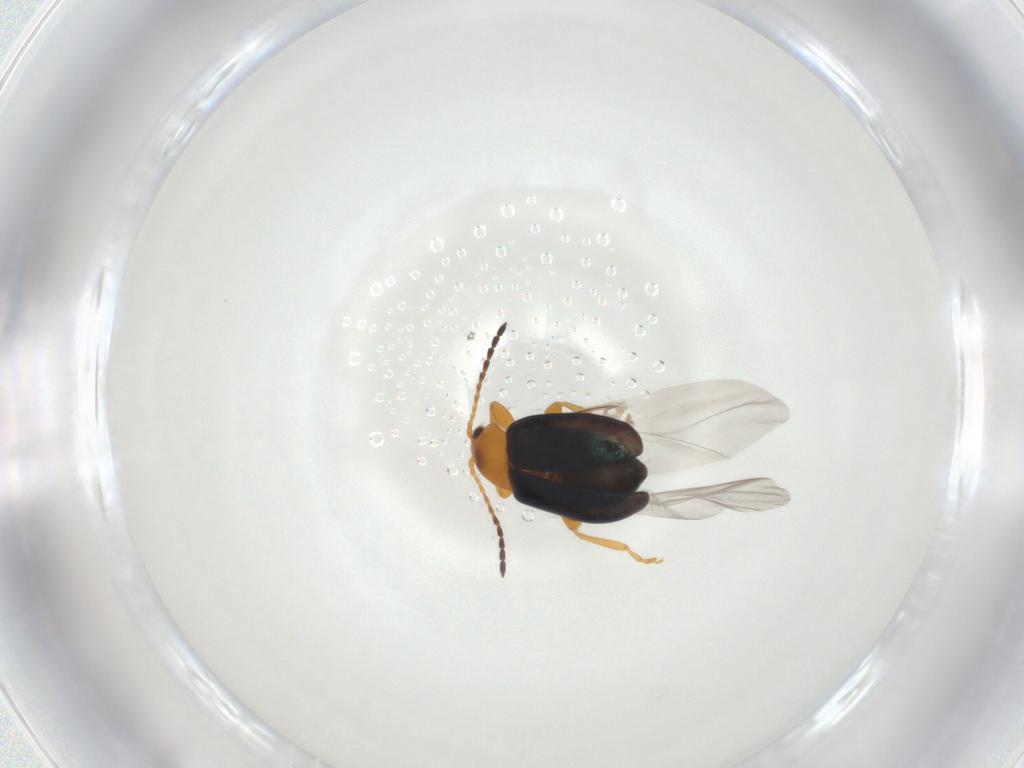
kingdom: Animalia
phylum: Arthropoda
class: Insecta
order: Coleoptera
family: Chrysomelidae
